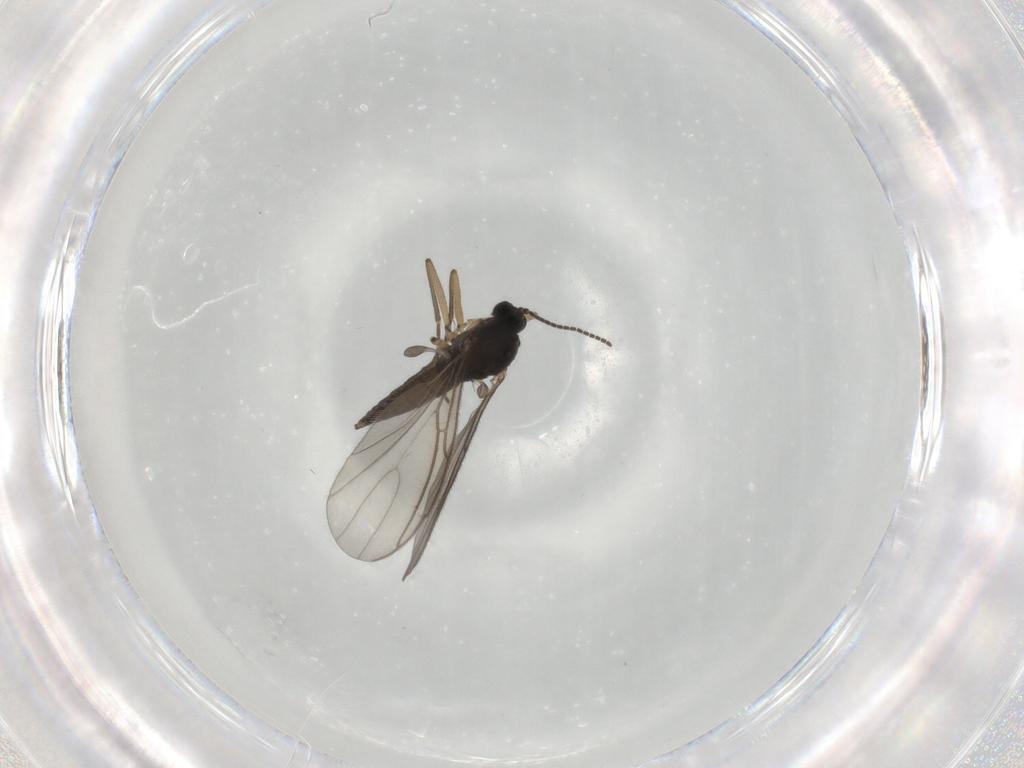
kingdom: Animalia
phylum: Arthropoda
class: Insecta
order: Diptera
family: Sciaridae
